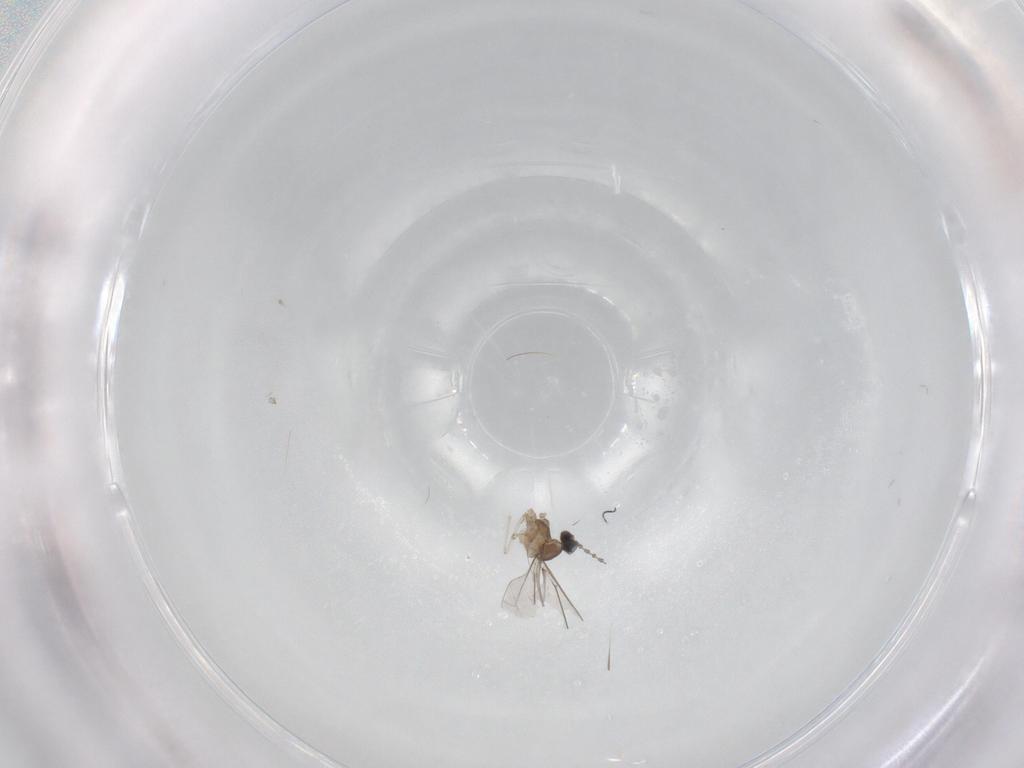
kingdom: Animalia
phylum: Arthropoda
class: Insecta
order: Diptera
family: Cecidomyiidae
